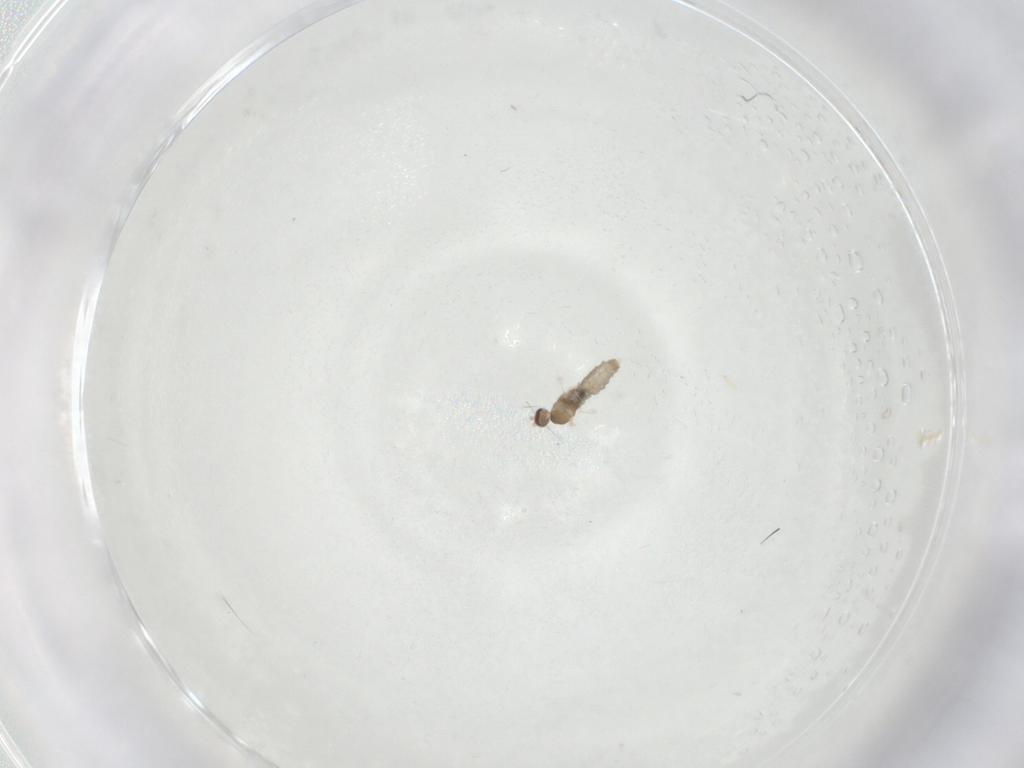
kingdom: Animalia
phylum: Arthropoda
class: Insecta
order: Diptera
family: Cecidomyiidae
